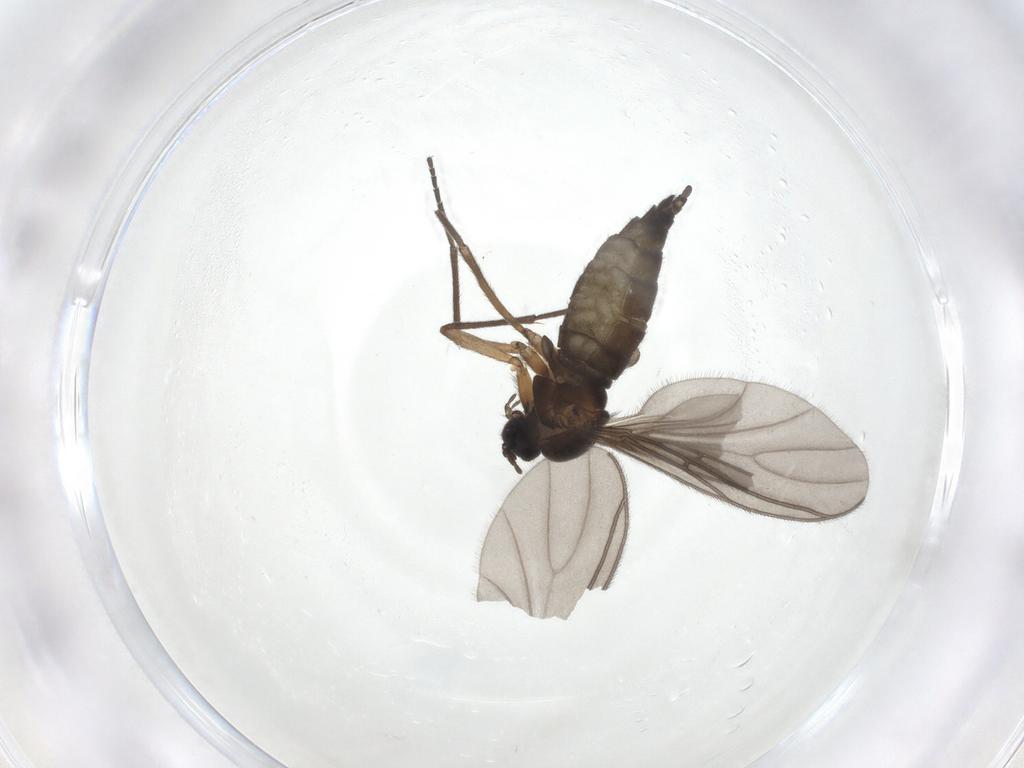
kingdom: Animalia
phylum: Arthropoda
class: Insecta
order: Diptera
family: Sciaridae
